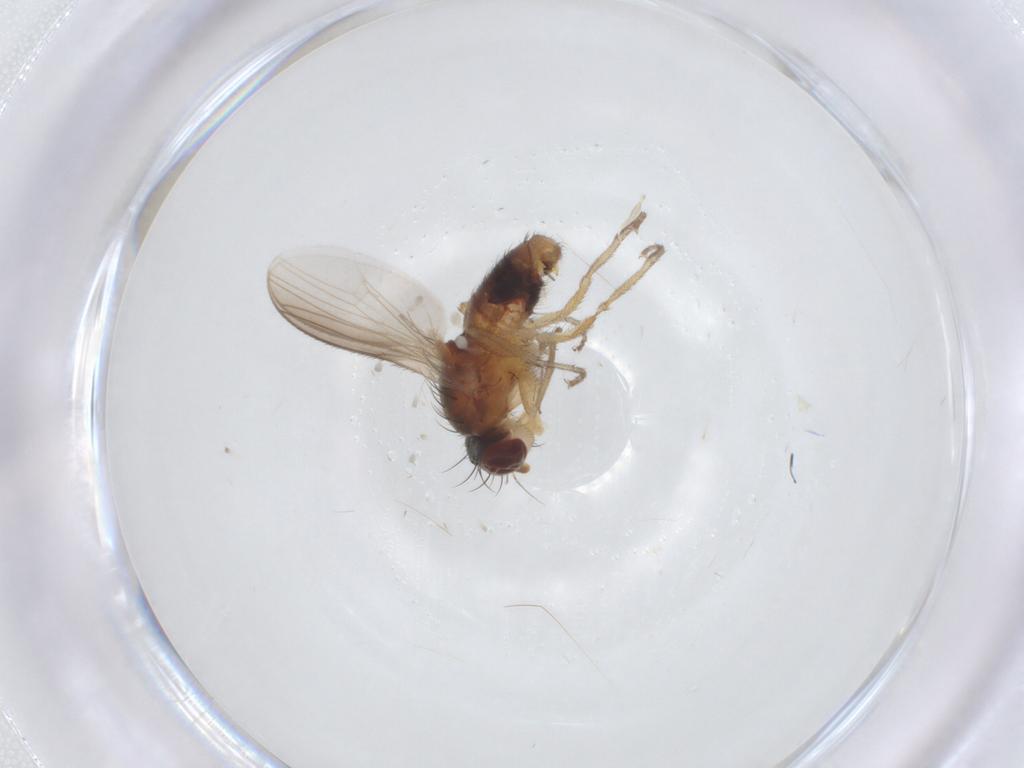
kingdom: Animalia
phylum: Arthropoda
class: Insecta
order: Diptera
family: Heleomyzidae
